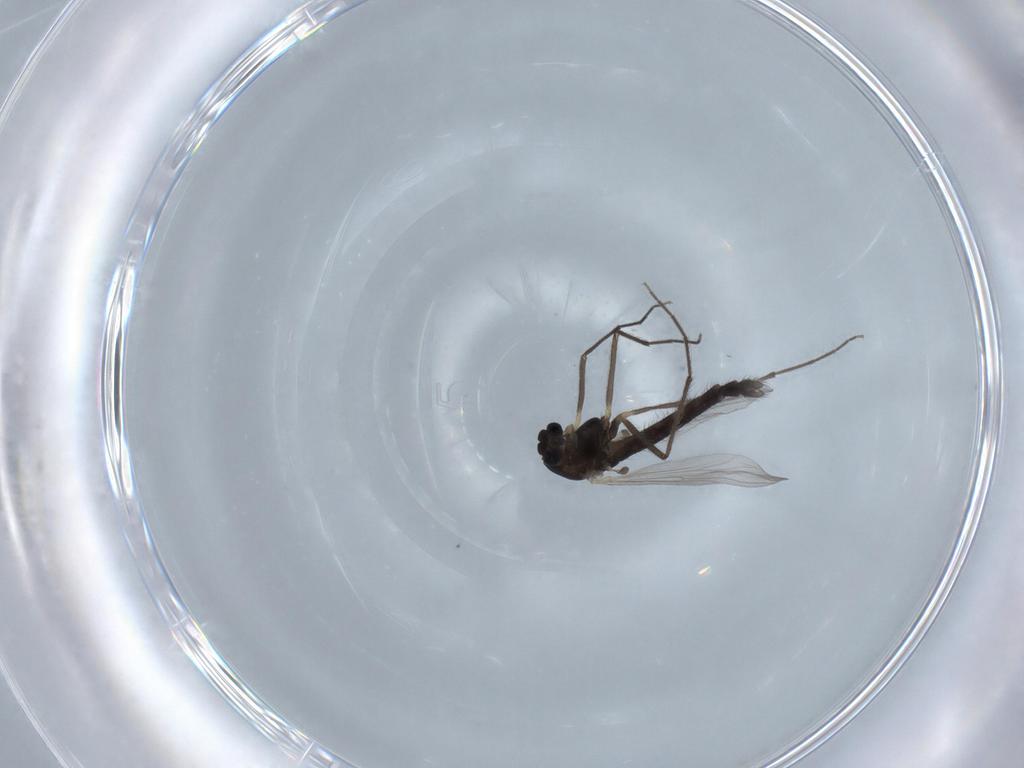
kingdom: Animalia
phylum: Arthropoda
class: Insecta
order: Diptera
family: Chironomidae
